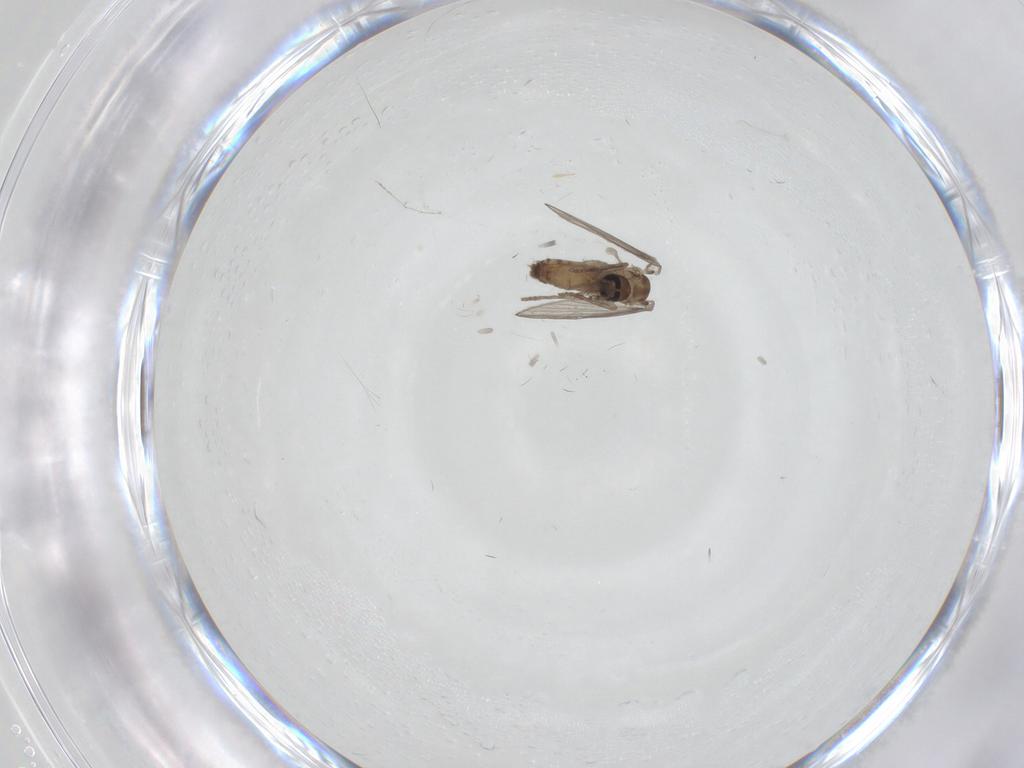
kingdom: Animalia
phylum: Arthropoda
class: Insecta
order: Diptera
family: Psychodidae
